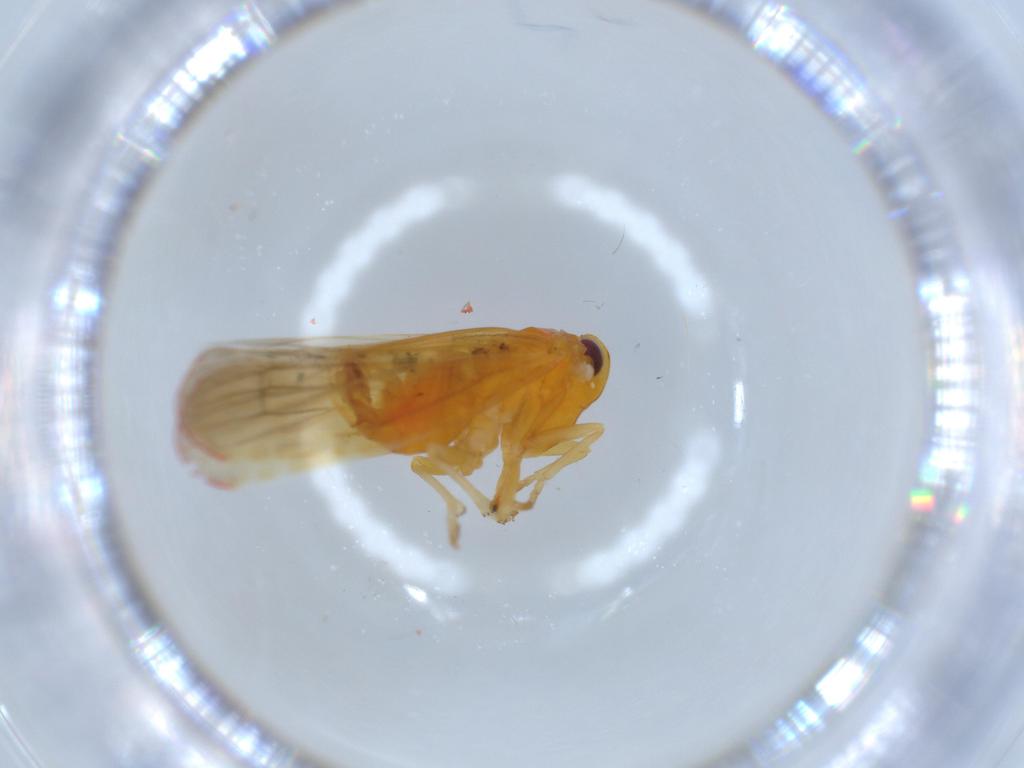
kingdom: Animalia
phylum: Arthropoda
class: Insecta
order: Hemiptera
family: Derbidae
